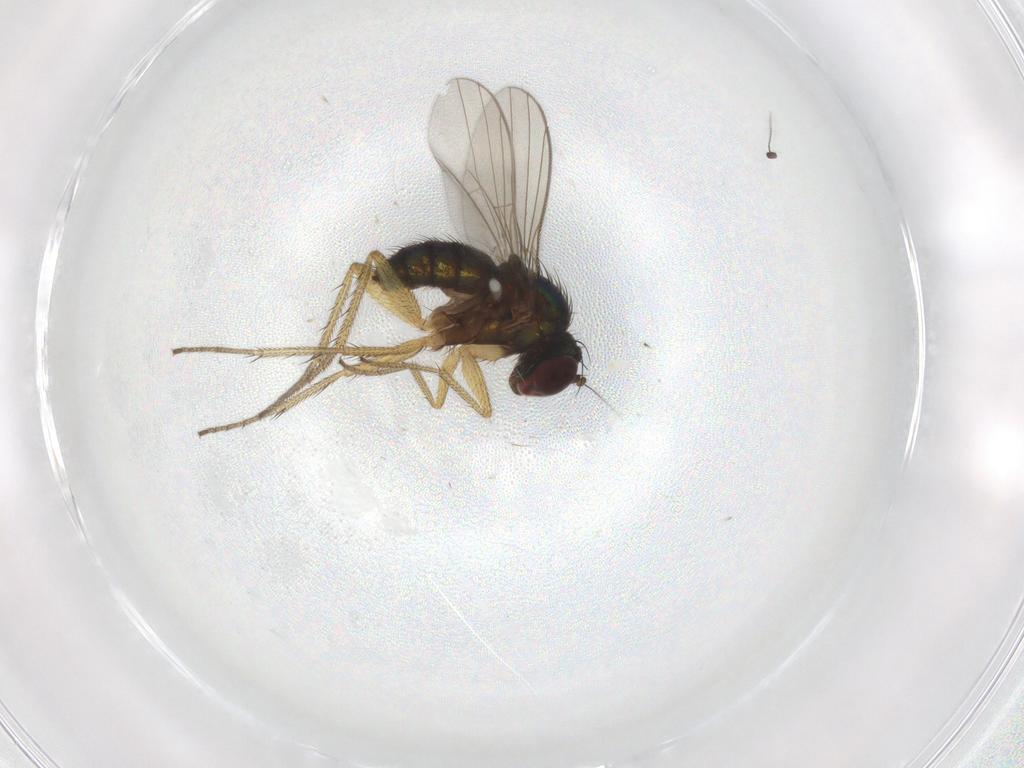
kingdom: Animalia
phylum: Arthropoda
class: Insecta
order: Diptera
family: Dolichopodidae
